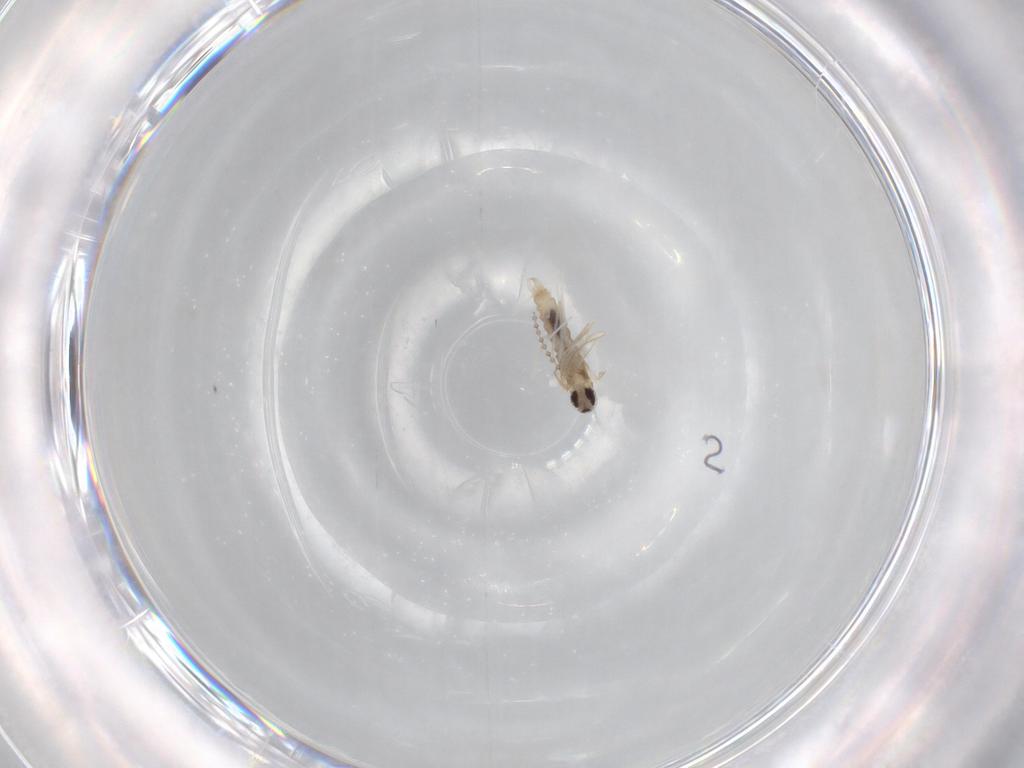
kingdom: Animalia
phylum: Arthropoda
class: Insecta
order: Diptera
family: Cecidomyiidae
